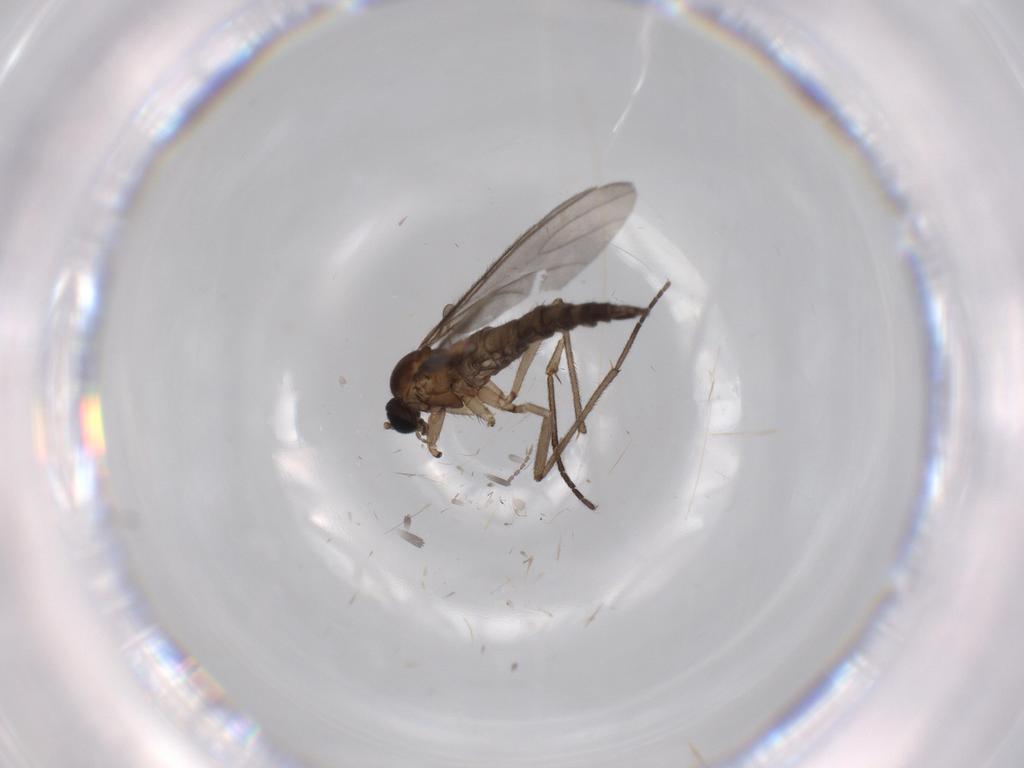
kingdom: Animalia
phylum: Arthropoda
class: Insecta
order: Diptera
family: Sciaridae
